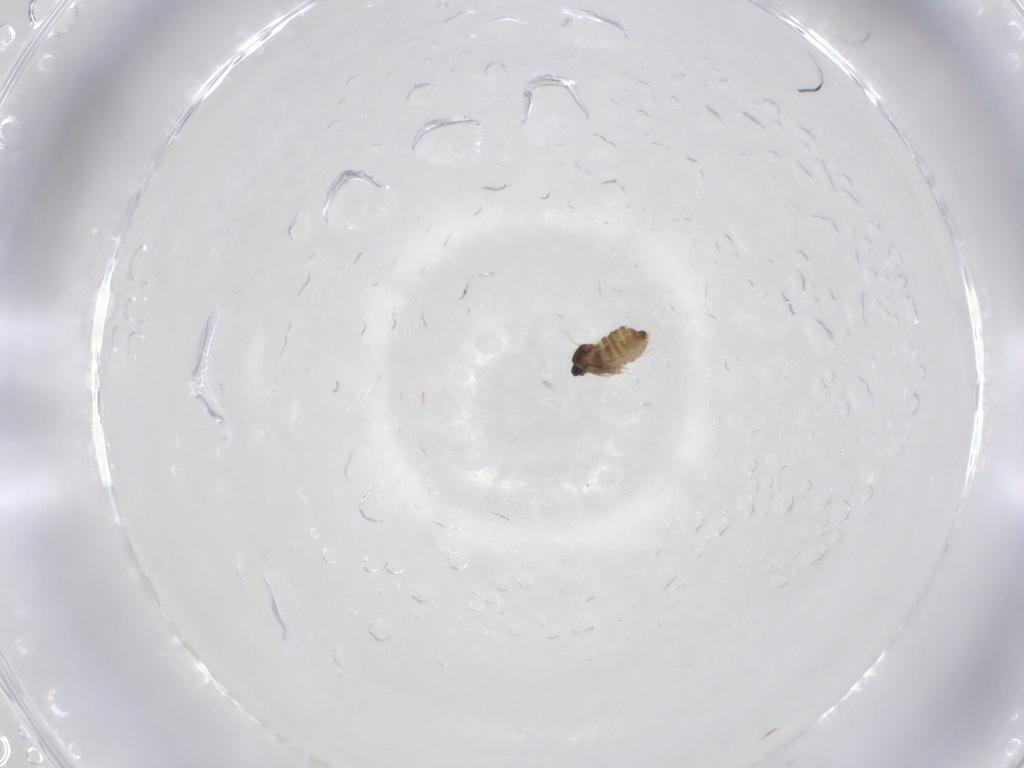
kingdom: Animalia
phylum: Arthropoda
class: Insecta
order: Diptera
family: Cecidomyiidae
